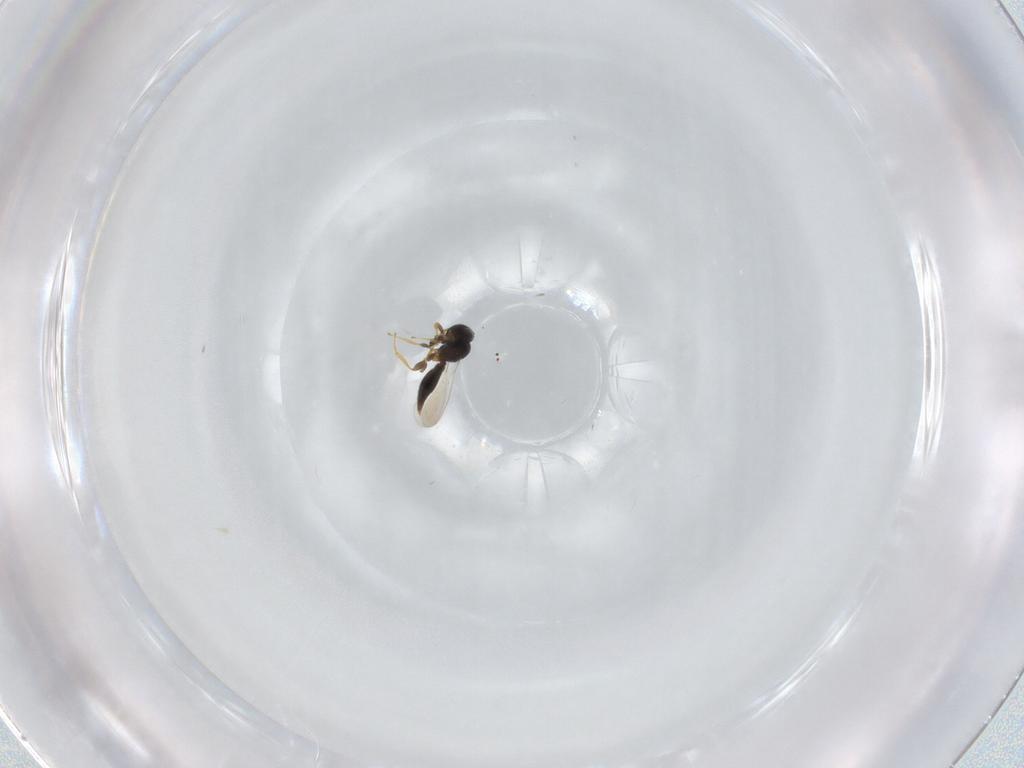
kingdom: Animalia
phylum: Arthropoda
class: Insecta
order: Hymenoptera
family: Platygastridae
